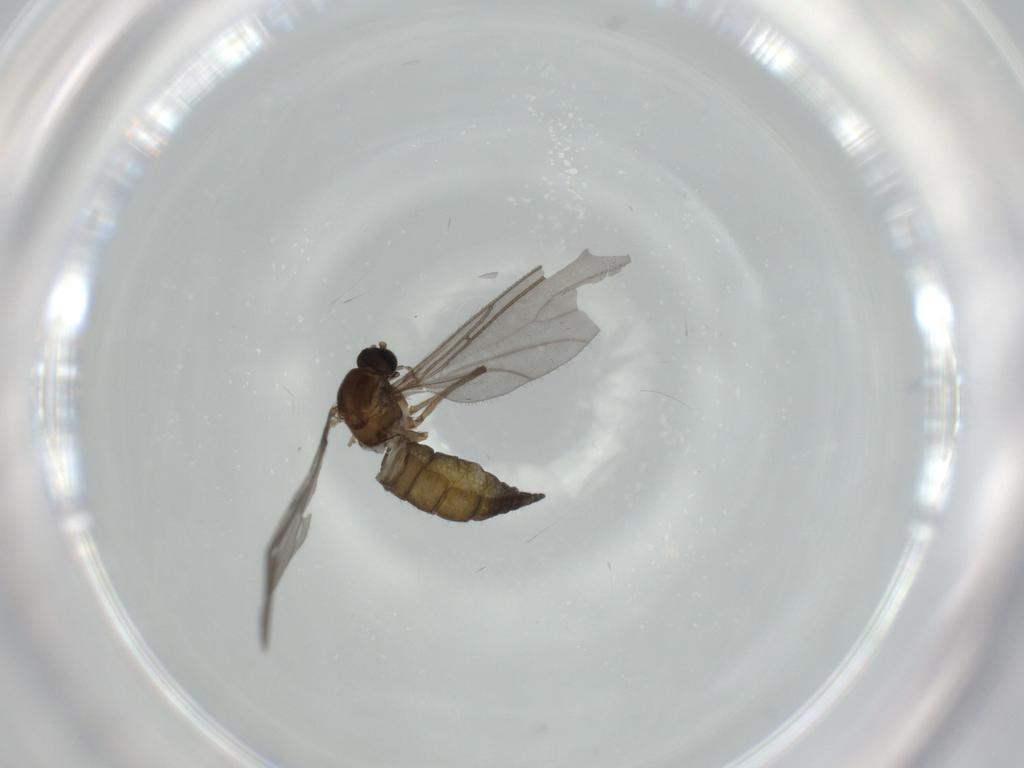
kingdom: Animalia
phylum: Arthropoda
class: Insecta
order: Diptera
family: Sciaridae
